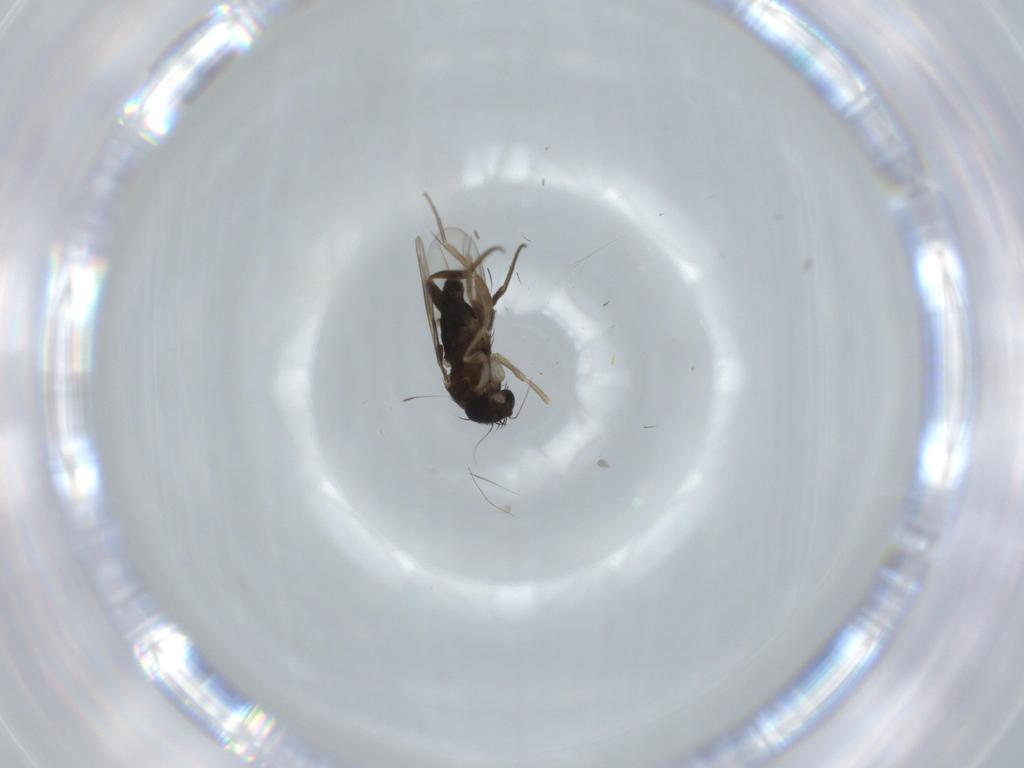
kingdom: Animalia
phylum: Arthropoda
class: Insecta
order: Diptera
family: Phoridae
